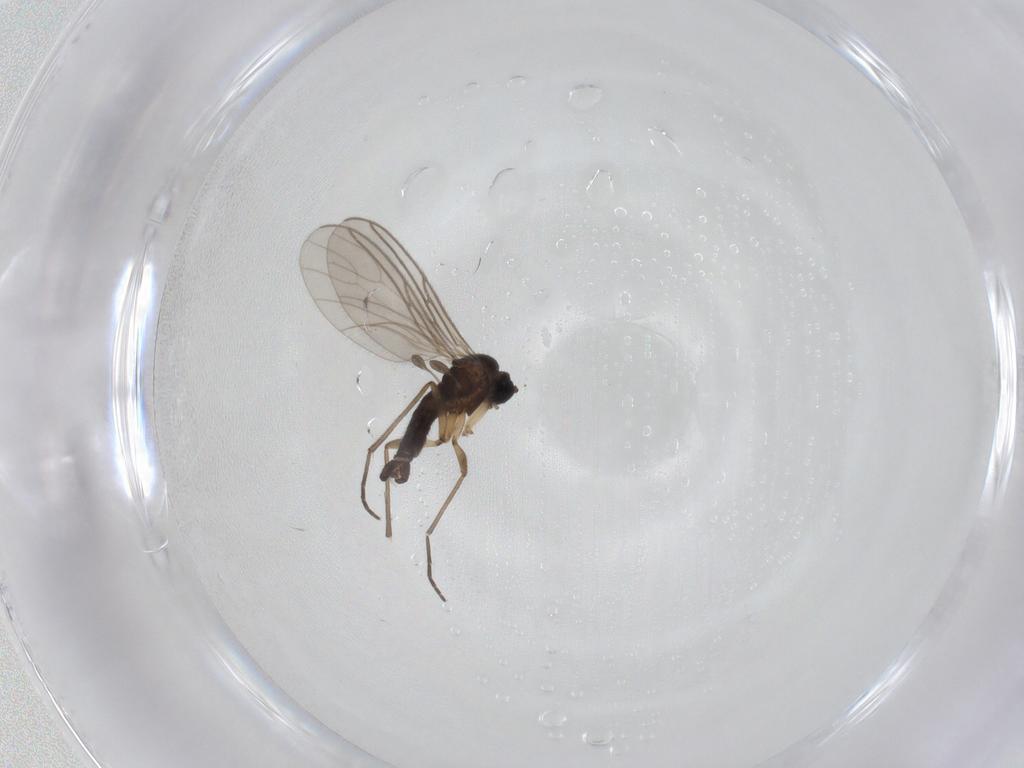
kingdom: Animalia
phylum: Arthropoda
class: Insecta
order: Diptera
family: Sciaridae
